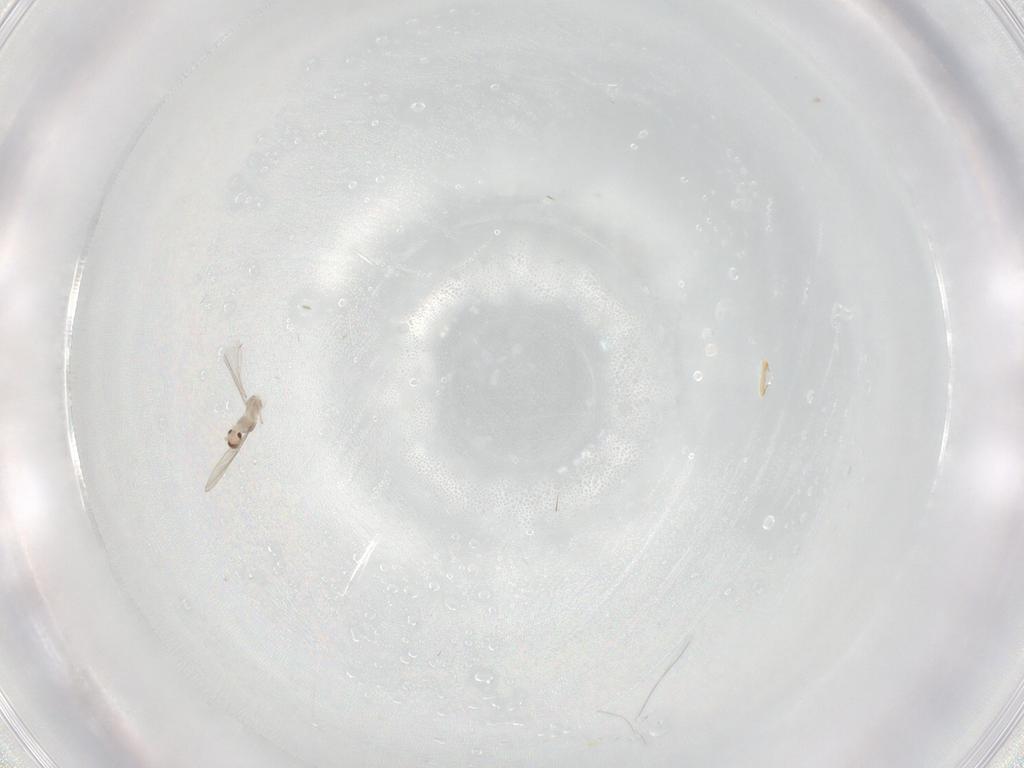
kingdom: Animalia
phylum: Arthropoda
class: Insecta
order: Diptera
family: Cecidomyiidae
